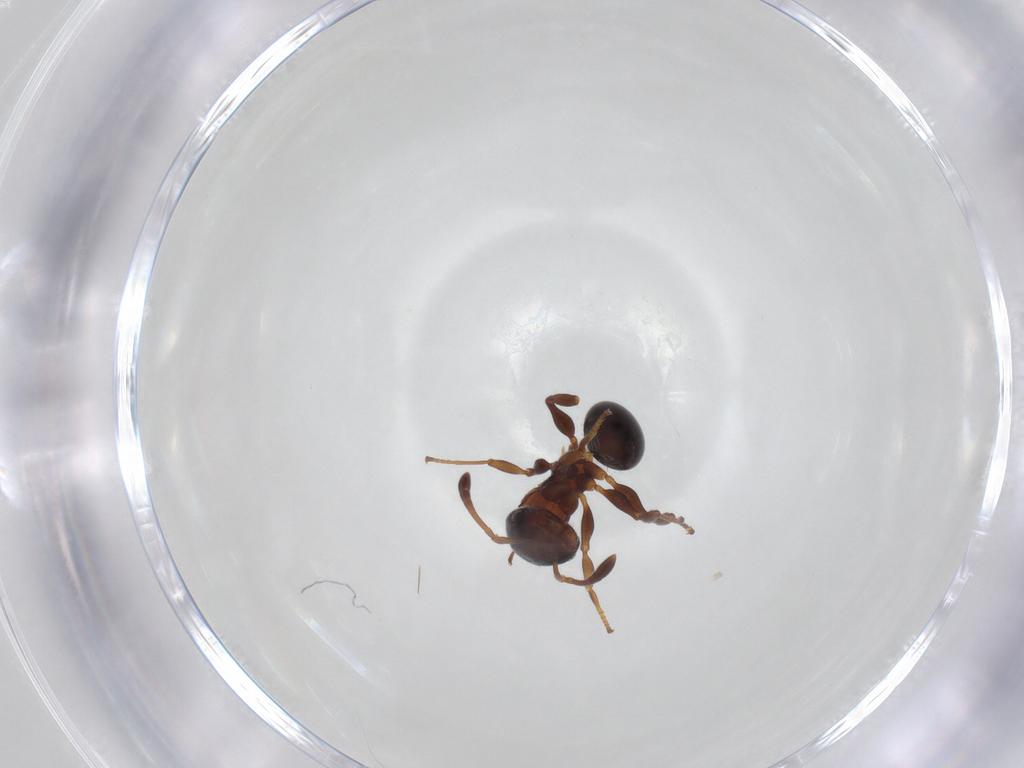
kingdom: Animalia
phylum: Arthropoda
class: Insecta
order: Hymenoptera
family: Formicidae
